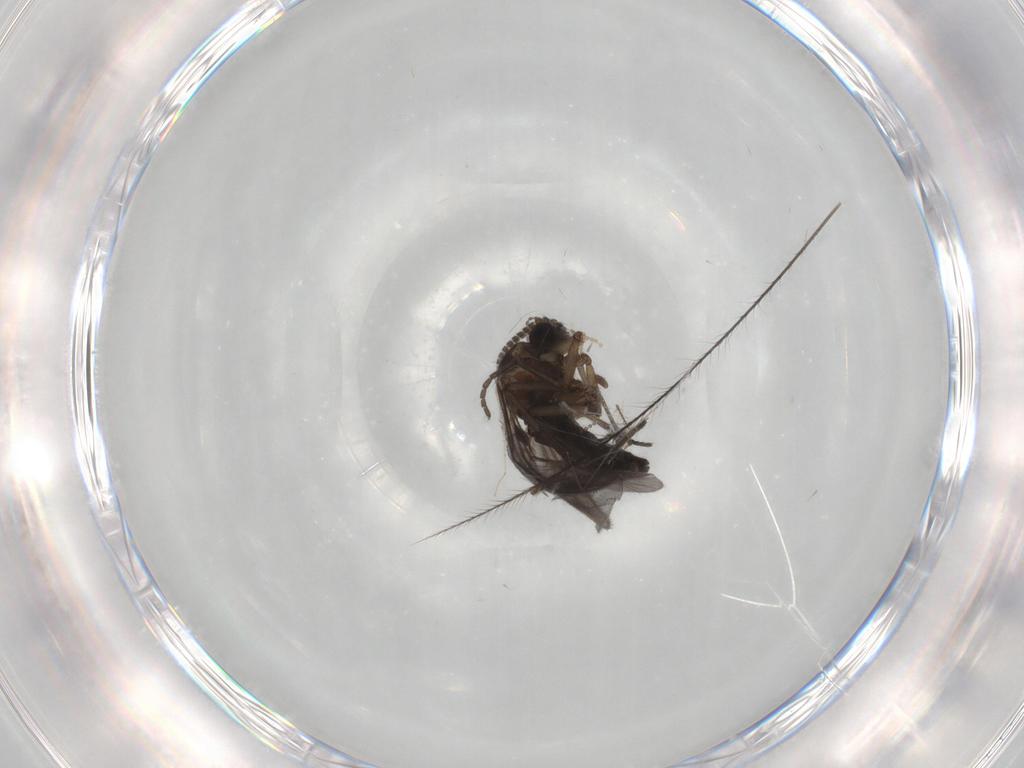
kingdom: Animalia
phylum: Arthropoda
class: Insecta
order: Diptera
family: Sciaridae
